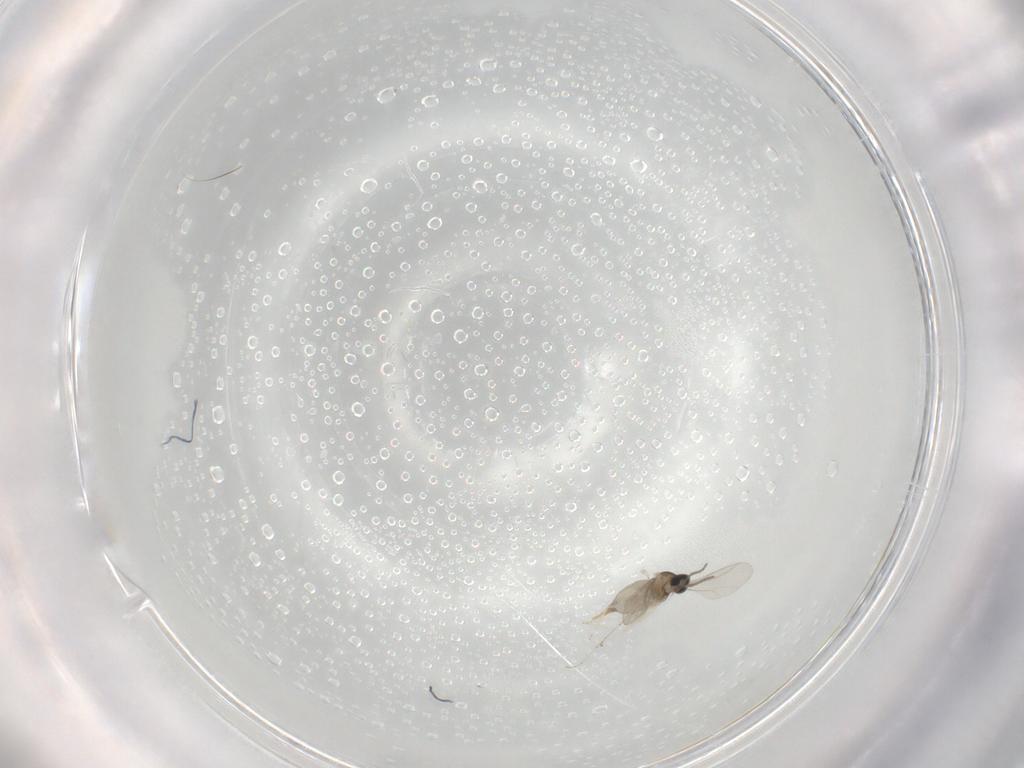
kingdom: Animalia
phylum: Arthropoda
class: Insecta
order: Diptera
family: Cecidomyiidae
